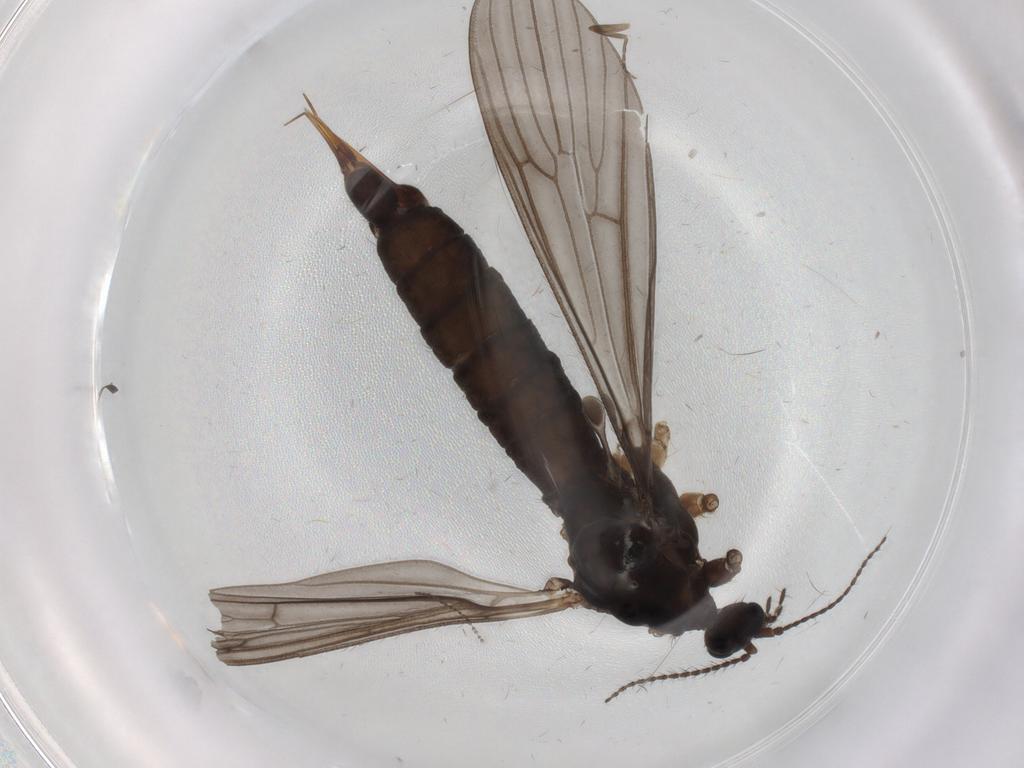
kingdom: Animalia
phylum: Arthropoda
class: Insecta
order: Diptera
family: Limoniidae
